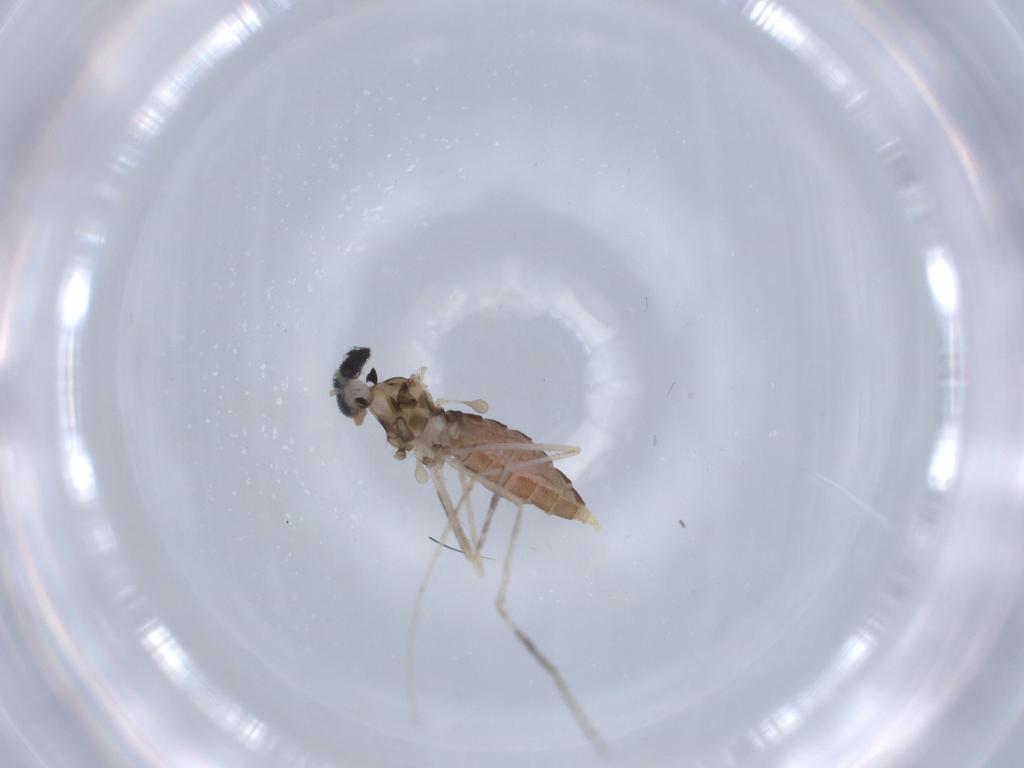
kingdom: Animalia
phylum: Arthropoda
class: Insecta
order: Diptera
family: Cecidomyiidae
